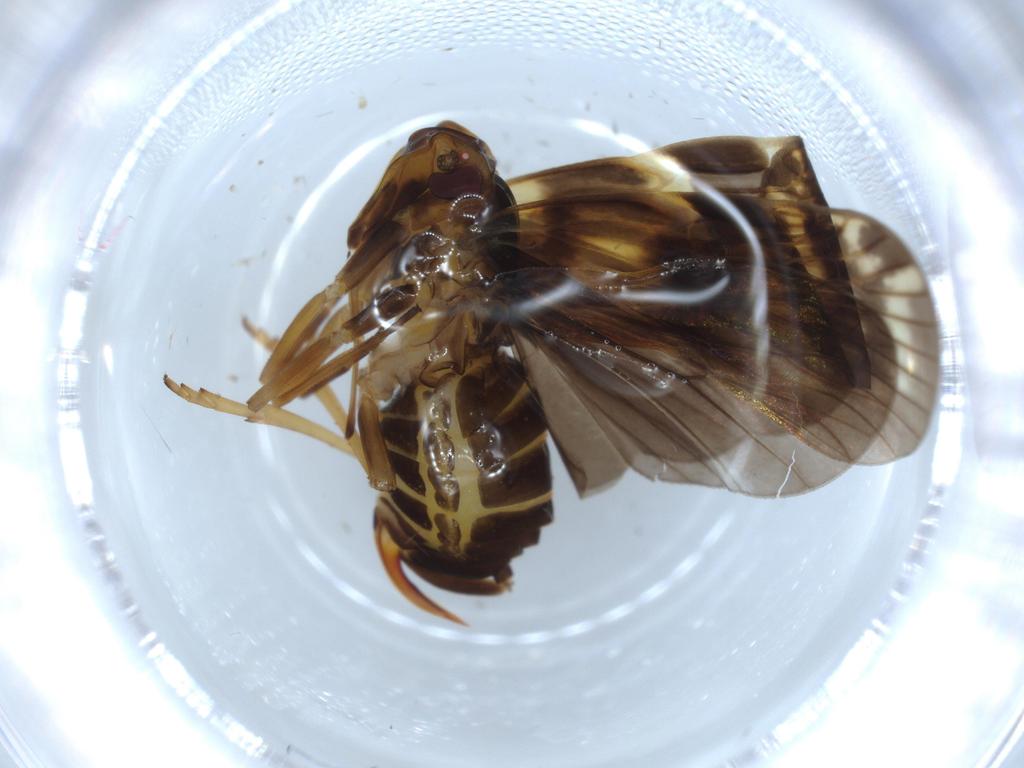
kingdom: Animalia
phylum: Arthropoda
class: Insecta
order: Hemiptera
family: Cixiidae
